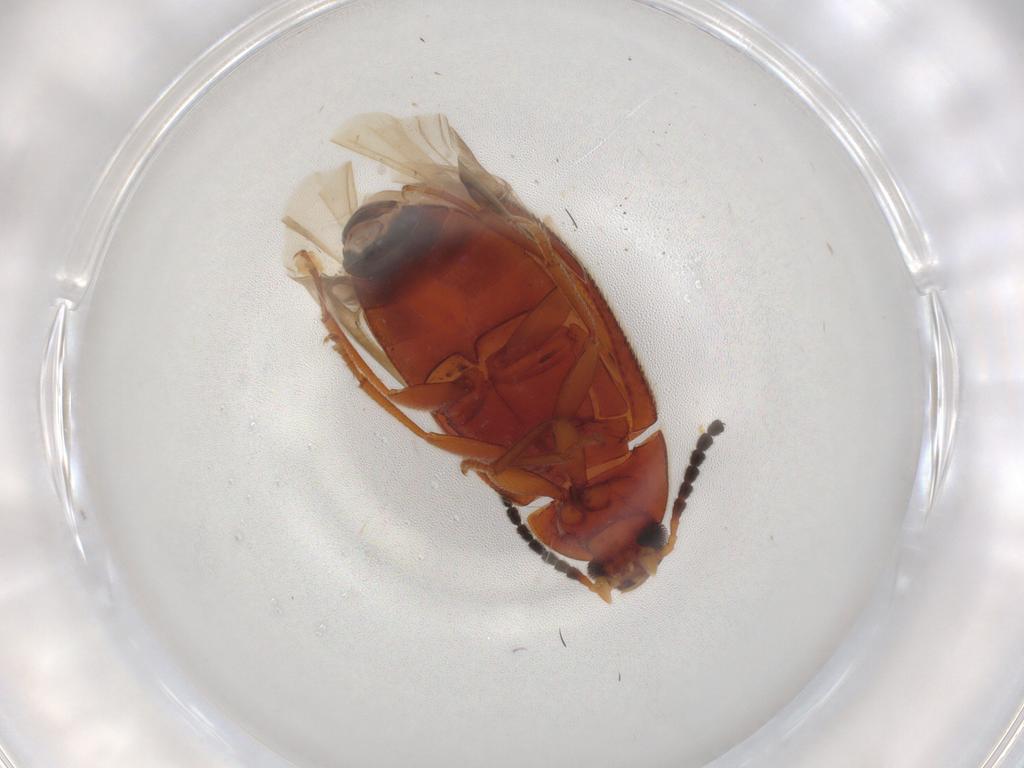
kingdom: Animalia
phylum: Arthropoda
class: Insecta
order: Coleoptera
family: Bostrichidae
